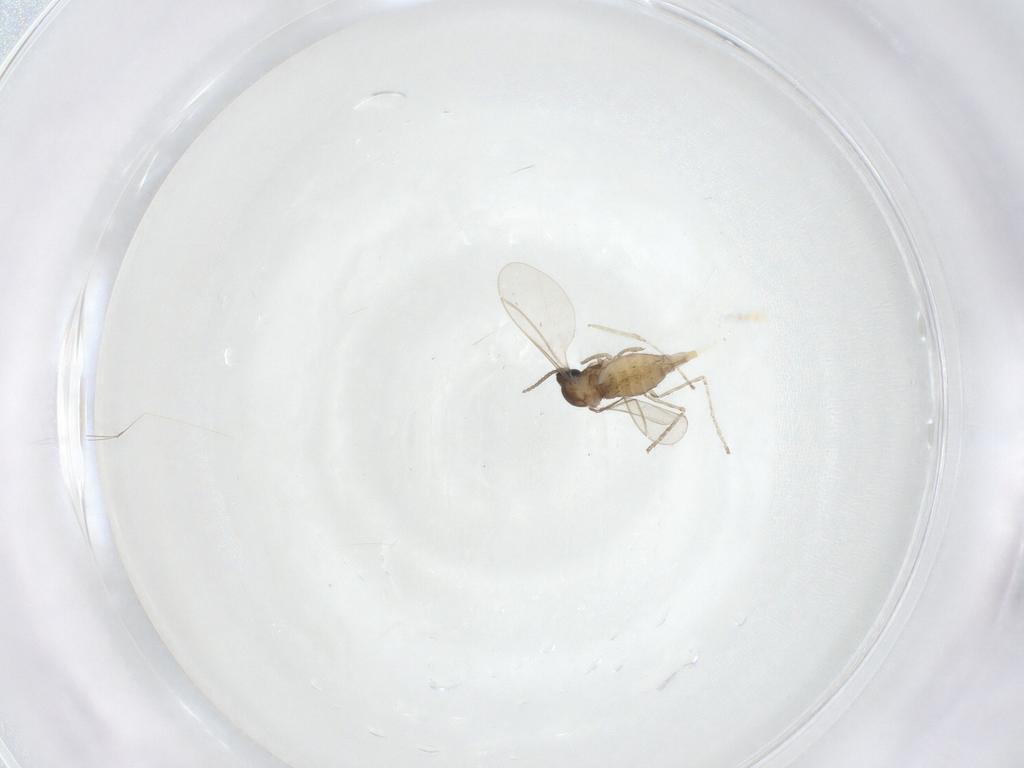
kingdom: Animalia
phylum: Arthropoda
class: Insecta
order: Diptera
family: Cecidomyiidae
